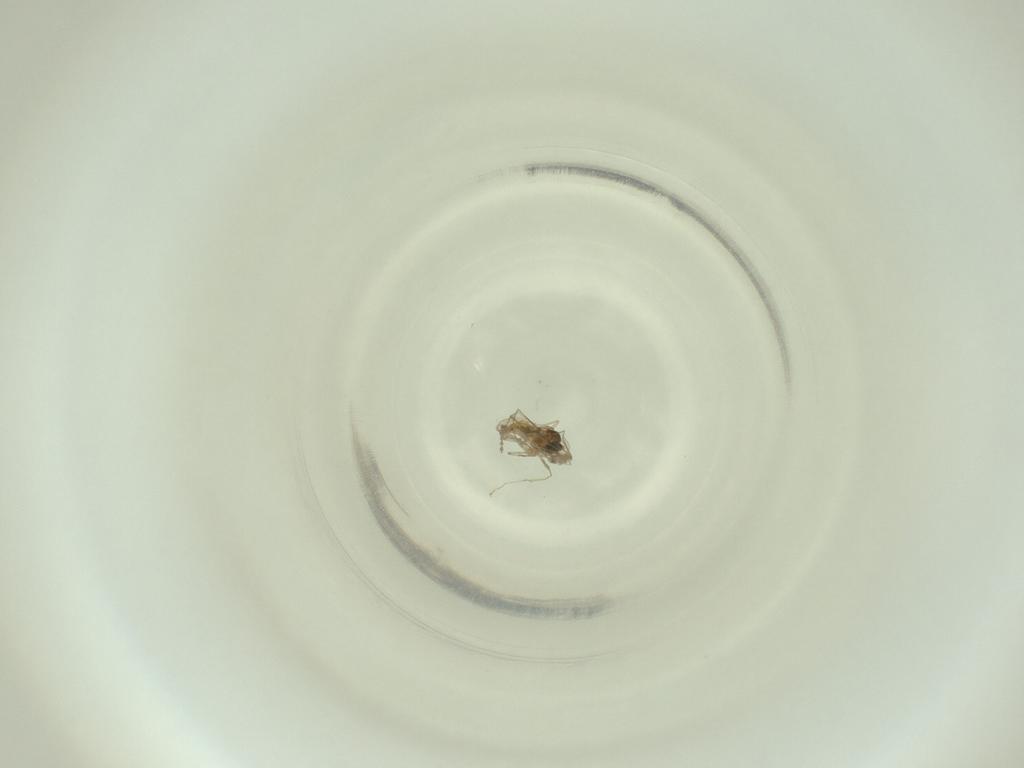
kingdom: Animalia
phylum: Arthropoda
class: Insecta
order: Diptera
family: Cecidomyiidae
